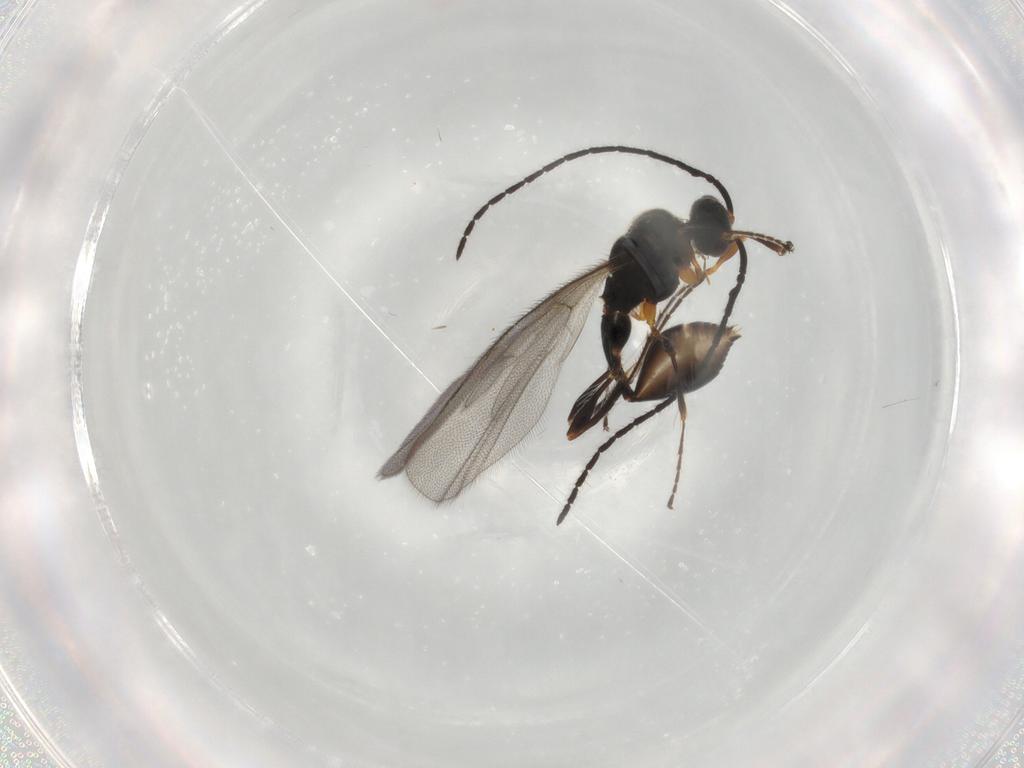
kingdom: Animalia
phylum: Arthropoda
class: Insecta
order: Hymenoptera
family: Diapriidae
